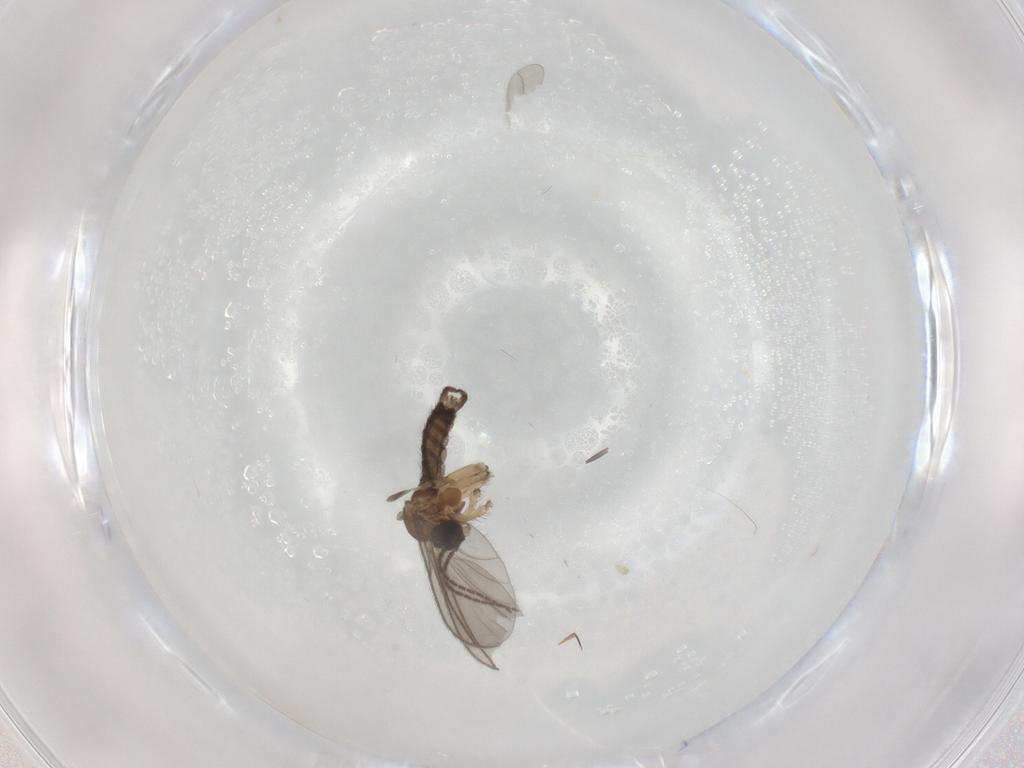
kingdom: Animalia
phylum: Arthropoda
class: Insecta
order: Diptera
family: Sciaridae
